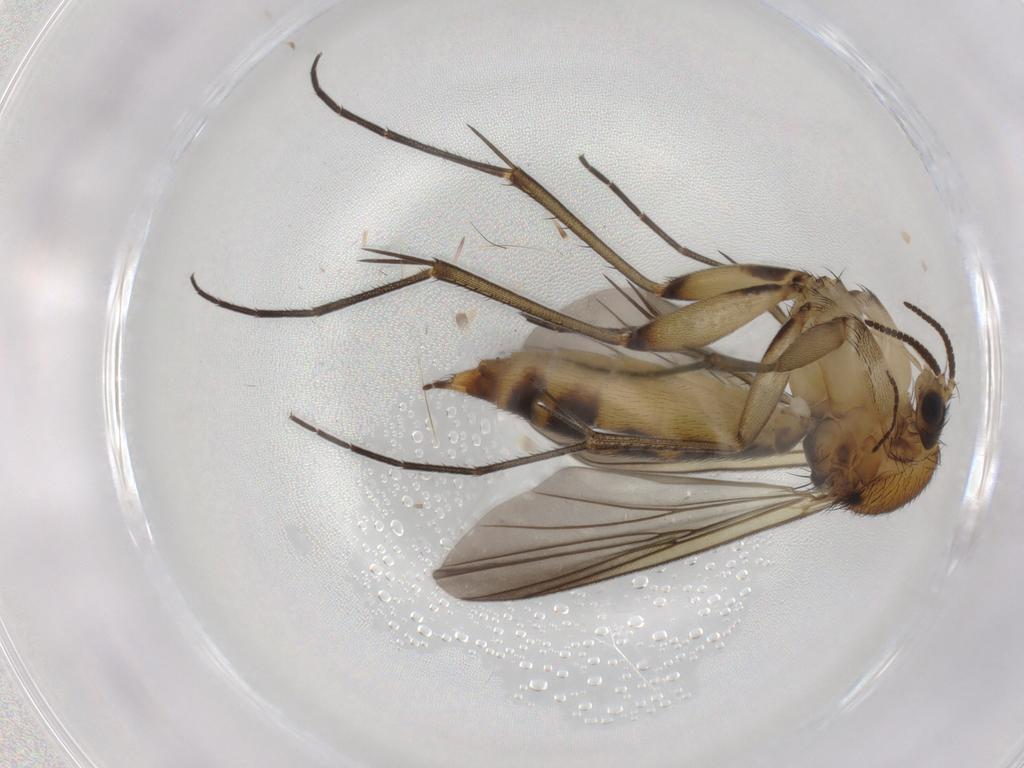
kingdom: Animalia
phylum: Arthropoda
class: Insecta
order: Diptera
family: Mycetophilidae
